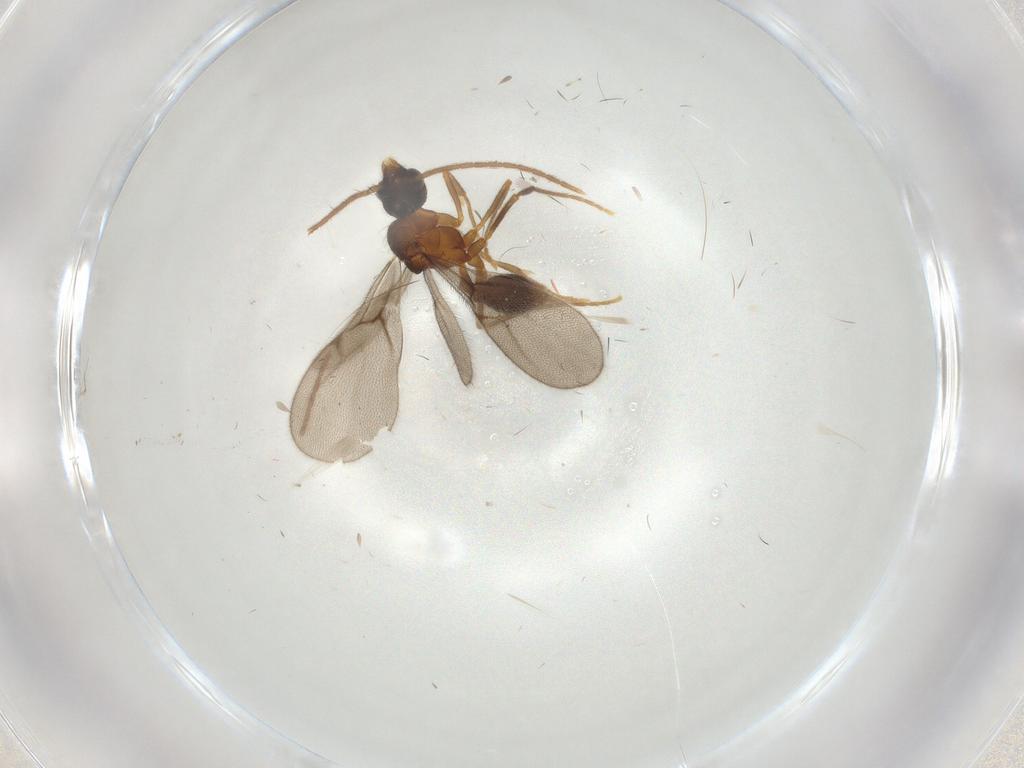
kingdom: Animalia
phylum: Arthropoda
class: Insecta
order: Hymenoptera
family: Formicidae
